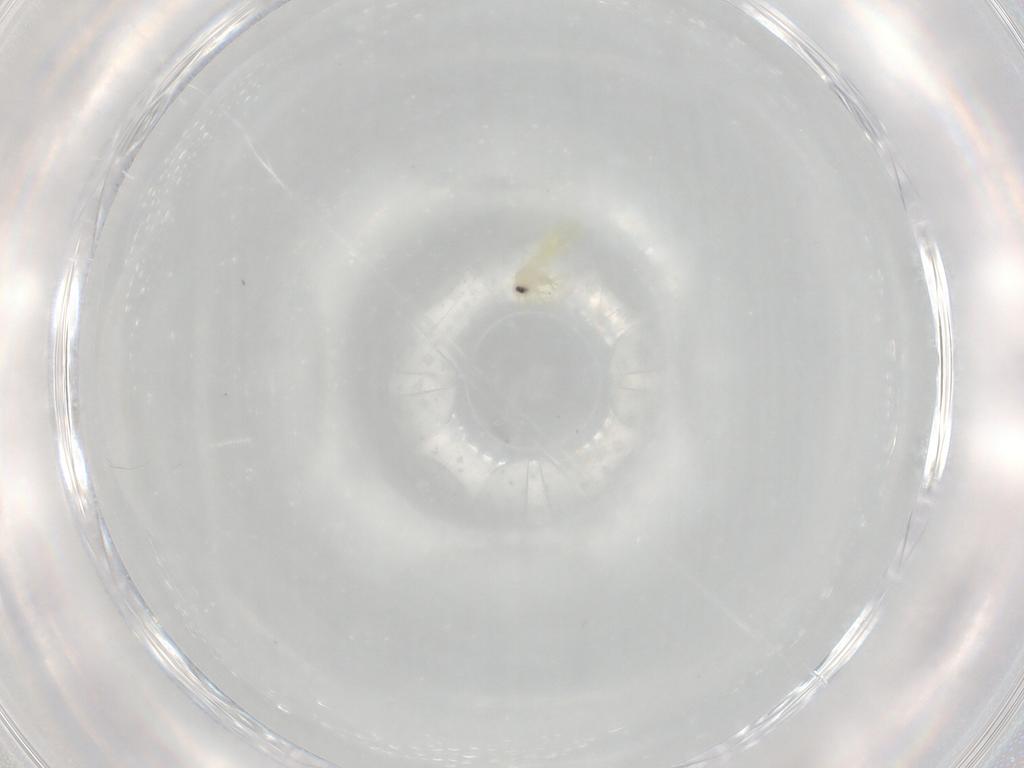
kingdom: Animalia
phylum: Arthropoda
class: Insecta
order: Hemiptera
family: Aleyrodidae
